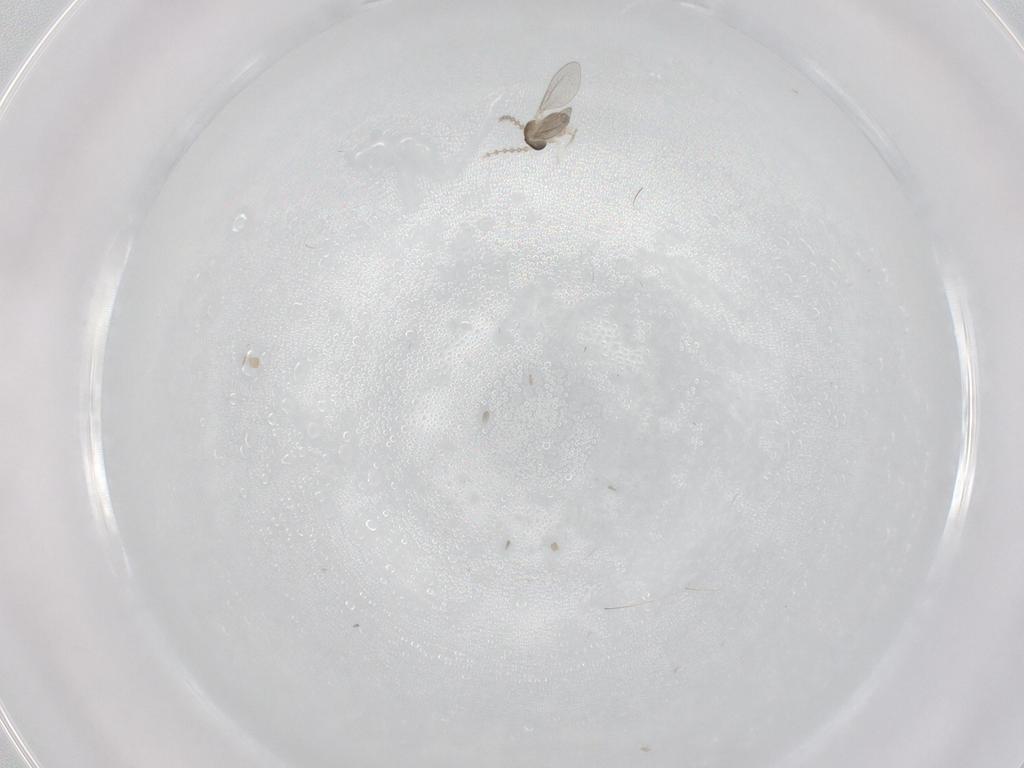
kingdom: Animalia
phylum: Arthropoda
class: Insecta
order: Diptera
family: Cecidomyiidae
